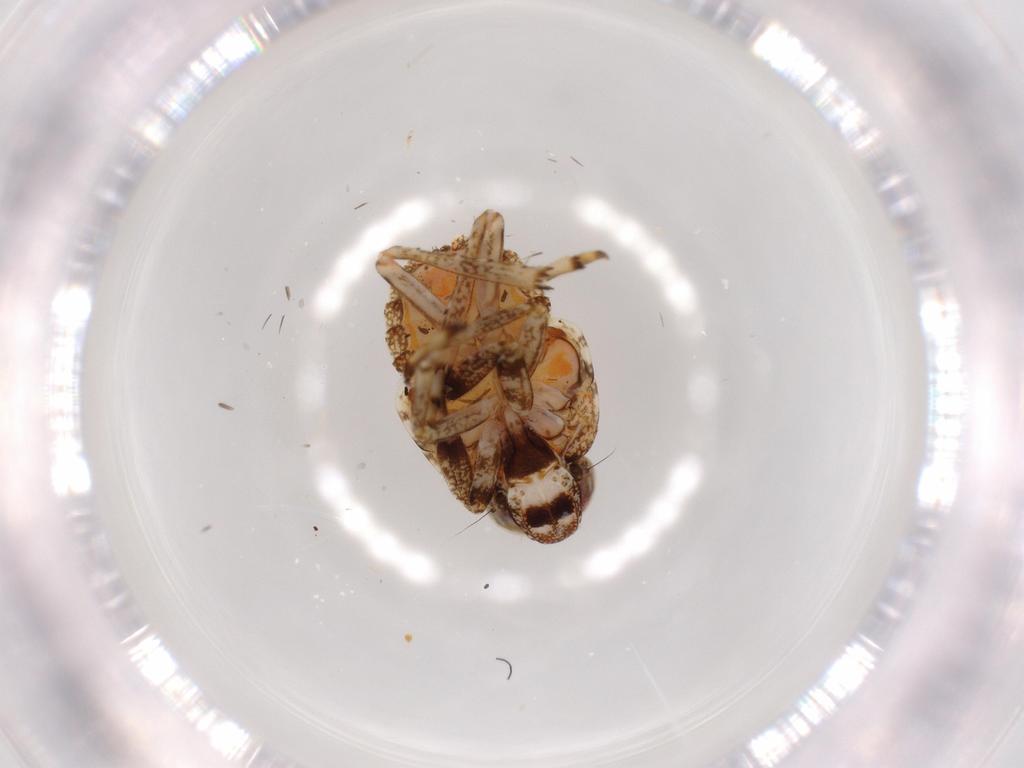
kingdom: Animalia
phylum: Arthropoda
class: Insecta
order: Hemiptera
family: Issidae
